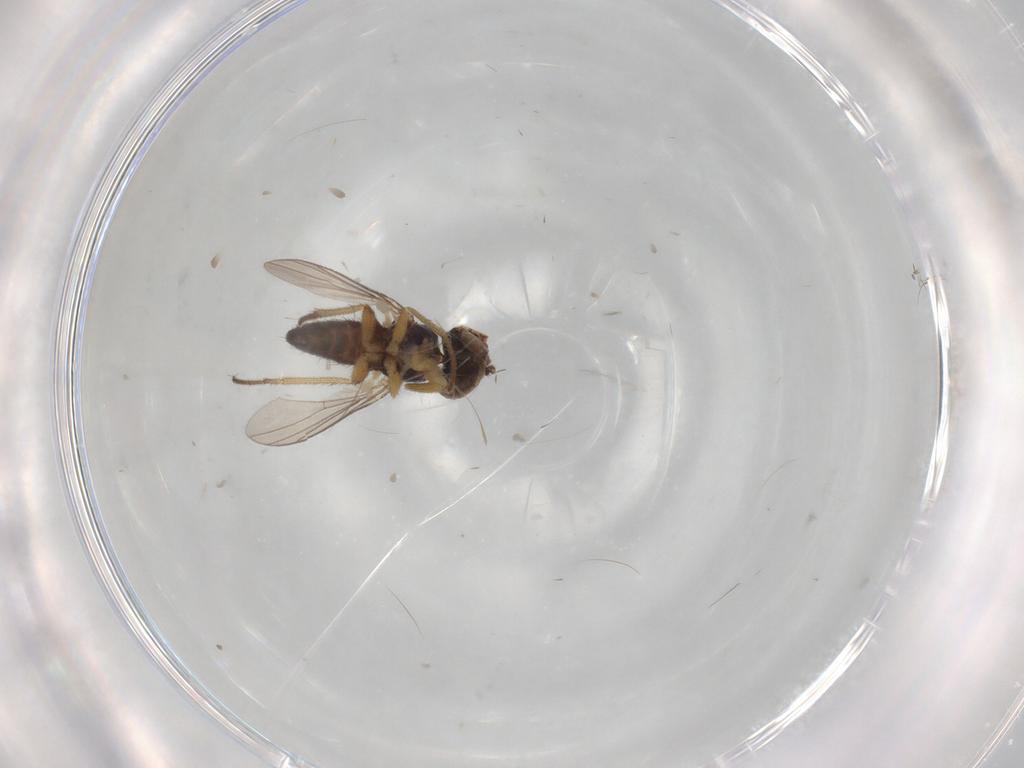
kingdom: Animalia
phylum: Arthropoda
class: Insecta
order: Diptera
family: Dolichopodidae
